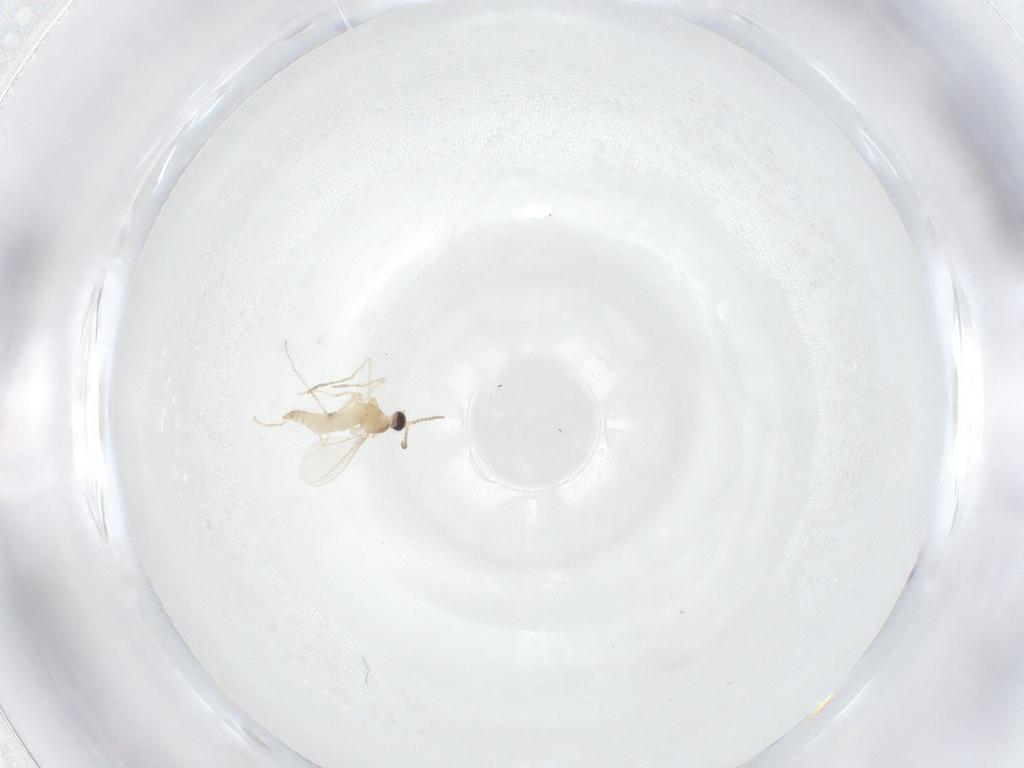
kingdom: Animalia
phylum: Arthropoda
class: Insecta
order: Diptera
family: Cecidomyiidae
